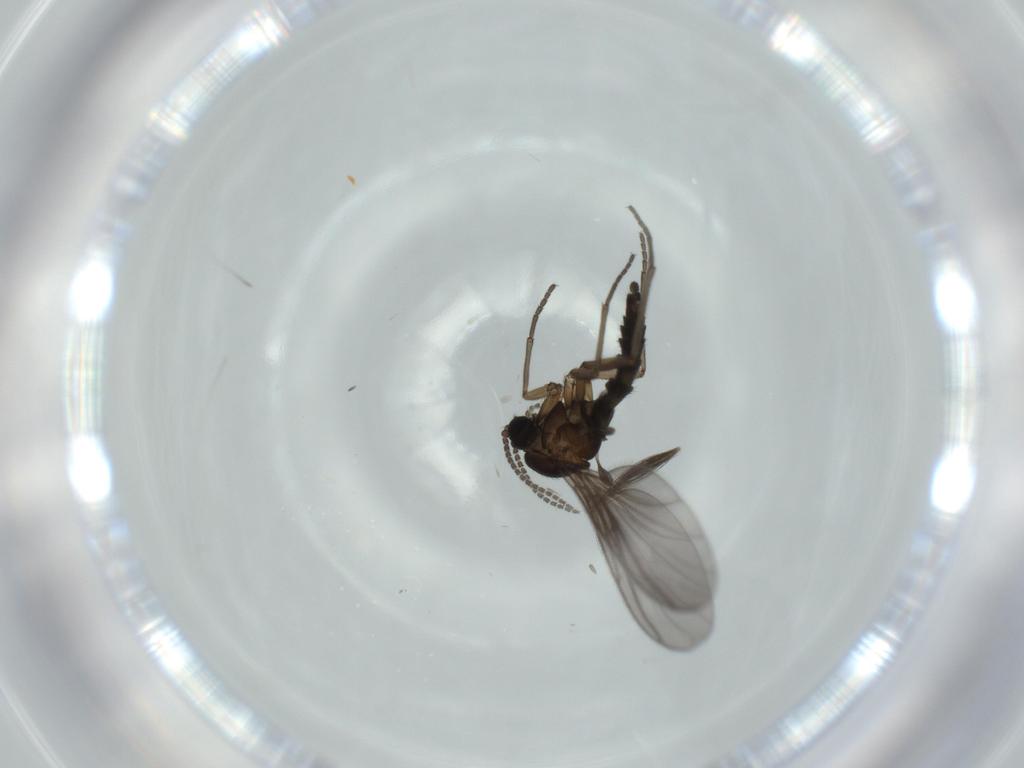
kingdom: Animalia
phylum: Arthropoda
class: Insecta
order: Diptera
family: Sciaridae
